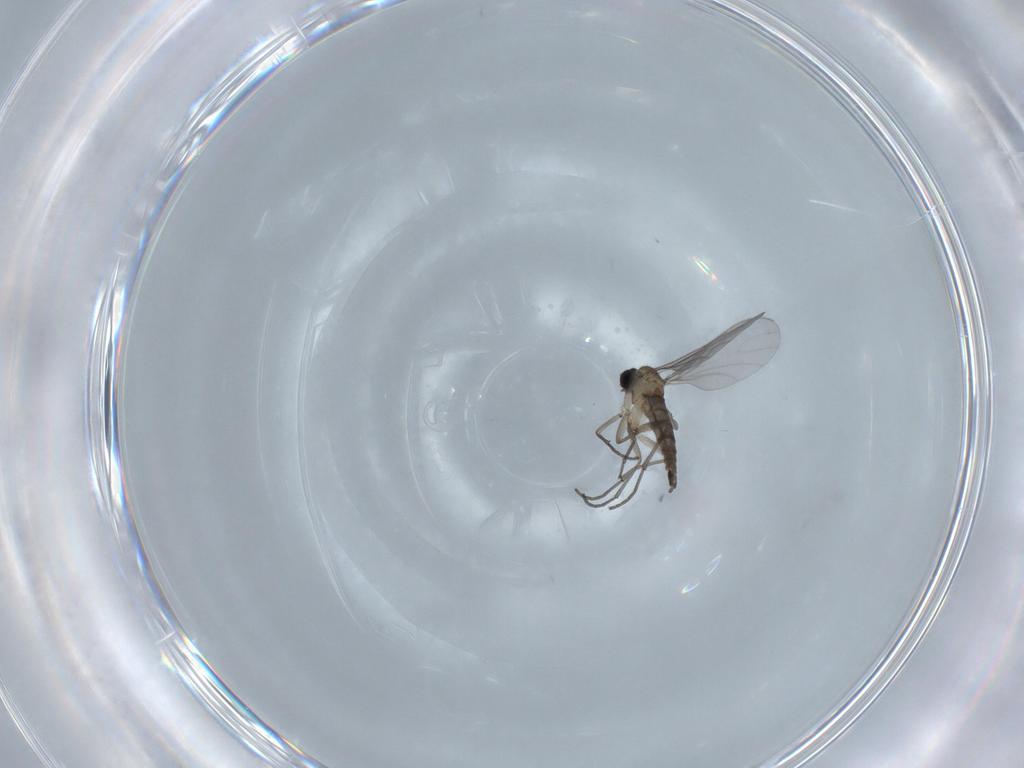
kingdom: Animalia
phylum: Arthropoda
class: Insecta
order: Diptera
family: Sciaridae
